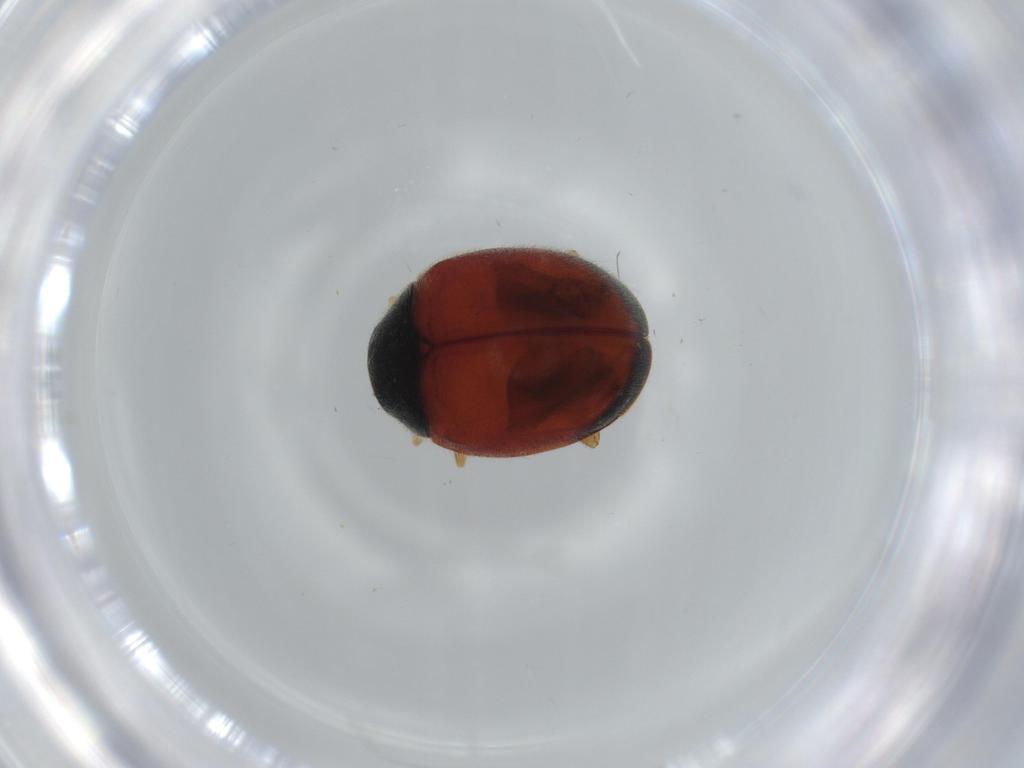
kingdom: Animalia
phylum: Arthropoda
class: Insecta
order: Coleoptera
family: Coccinellidae
